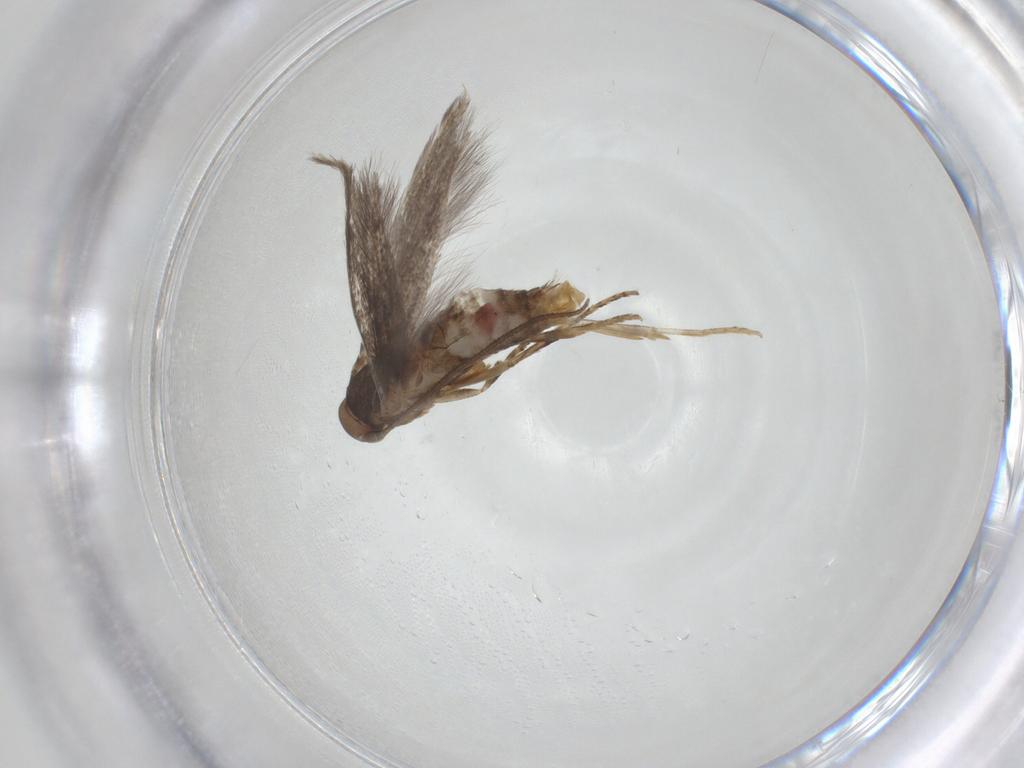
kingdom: Animalia
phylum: Arthropoda
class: Insecta
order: Lepidoptera
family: Elachistidae
